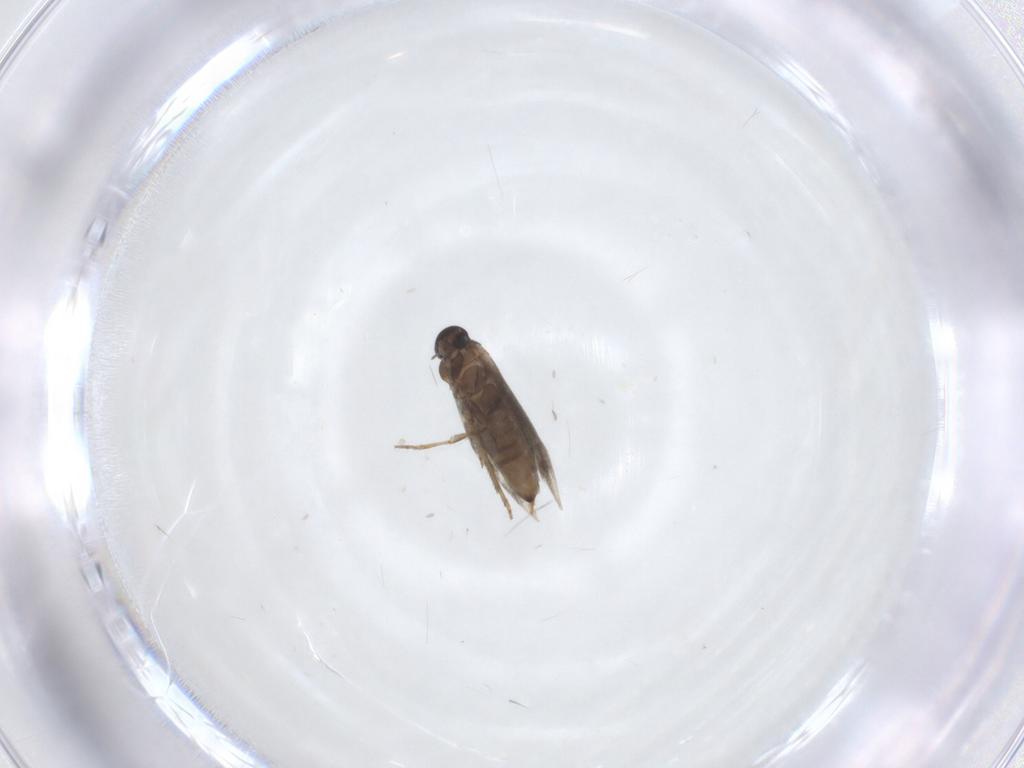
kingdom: Animalia
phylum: Arthropoda
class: Insecta
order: Lepidoptera
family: Heliozelidae
